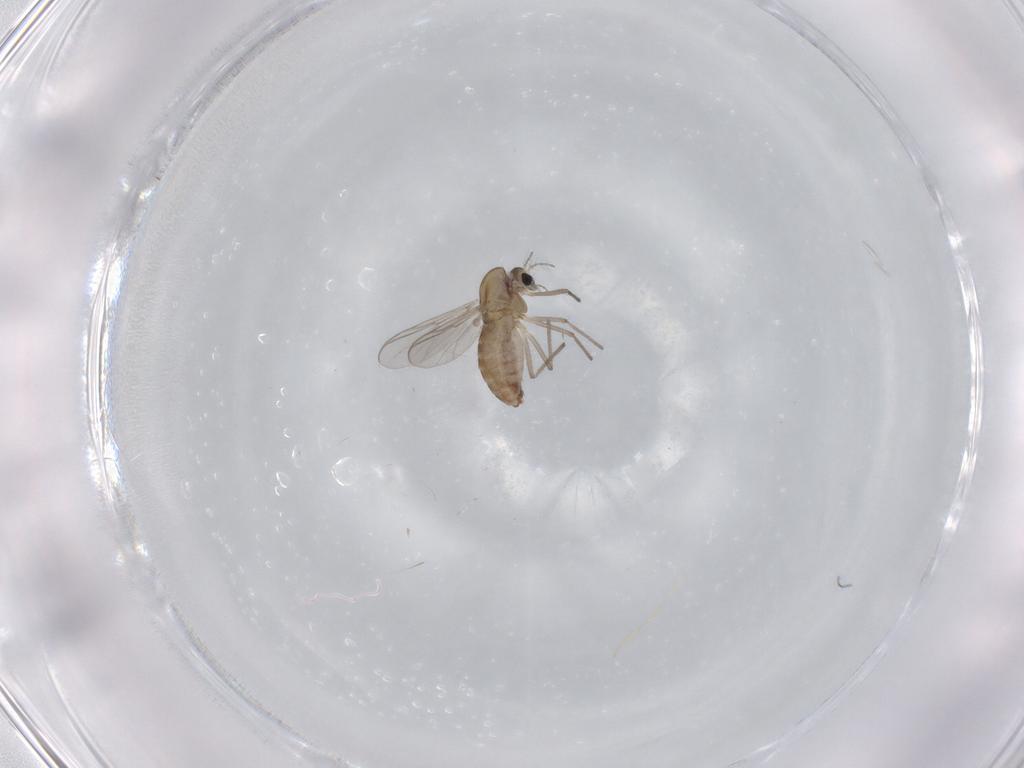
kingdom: Animalia
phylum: Arthropoda
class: Insecta
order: Diptera
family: Chironomidae
